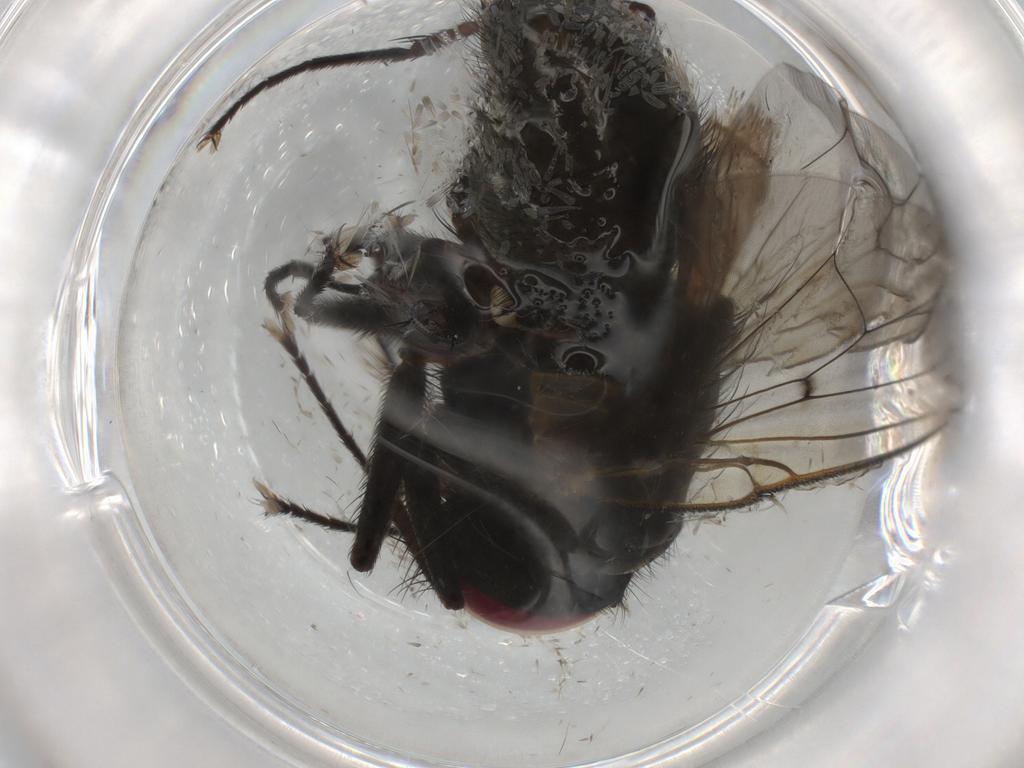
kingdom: Animalia
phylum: Arthropoda
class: Insecta
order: Diptera
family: Muscidae
